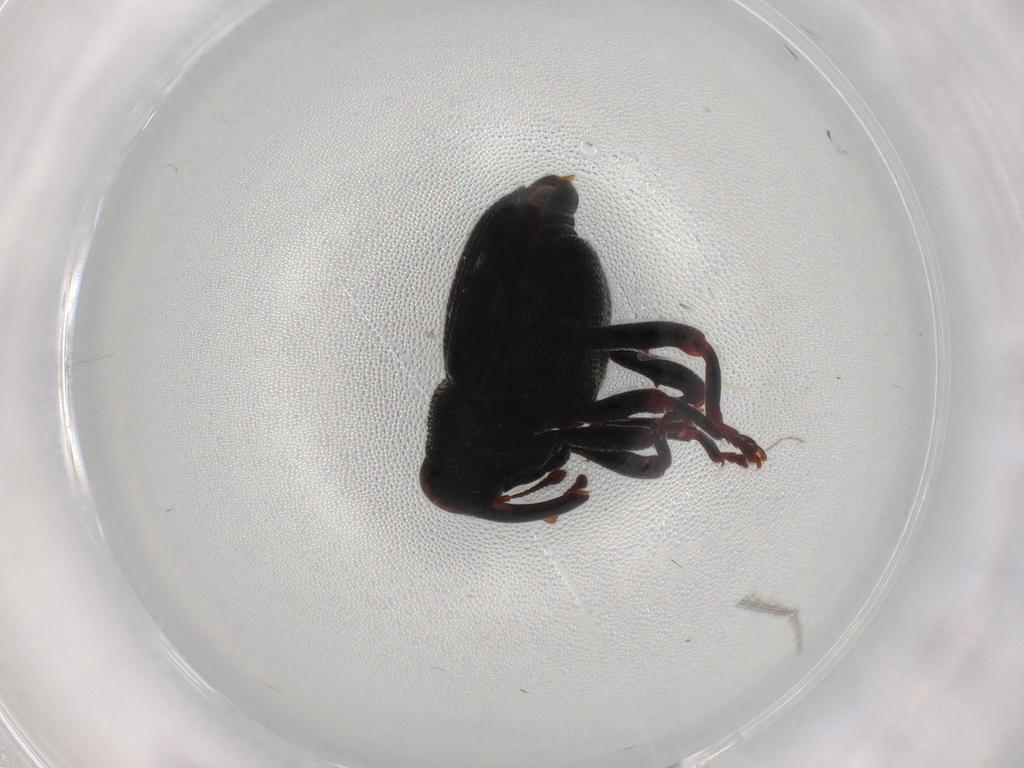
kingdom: Animalia
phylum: Arthropoda
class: Insecta
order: Coleoptera
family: Curculionidae
